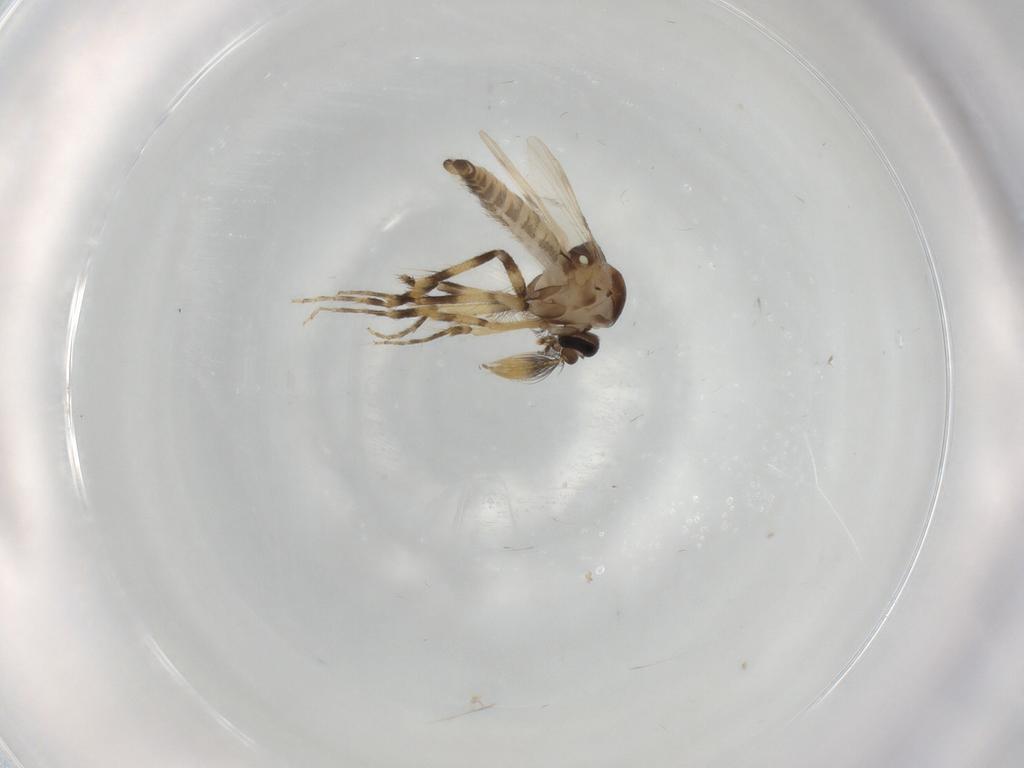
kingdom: Animalia
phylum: Arthropoda
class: Insecta
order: Diptera
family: Ceratopogonidae
